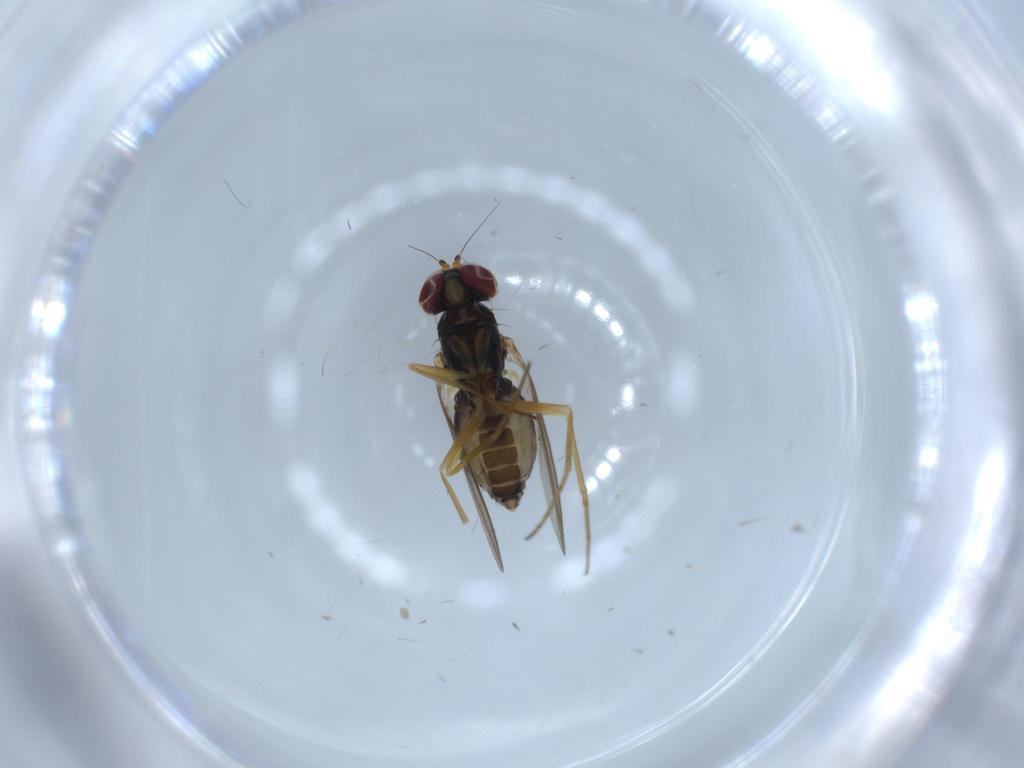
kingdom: Animalia
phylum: Arthropoda
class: Insecta
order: Diptera
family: Dolichopodidae
